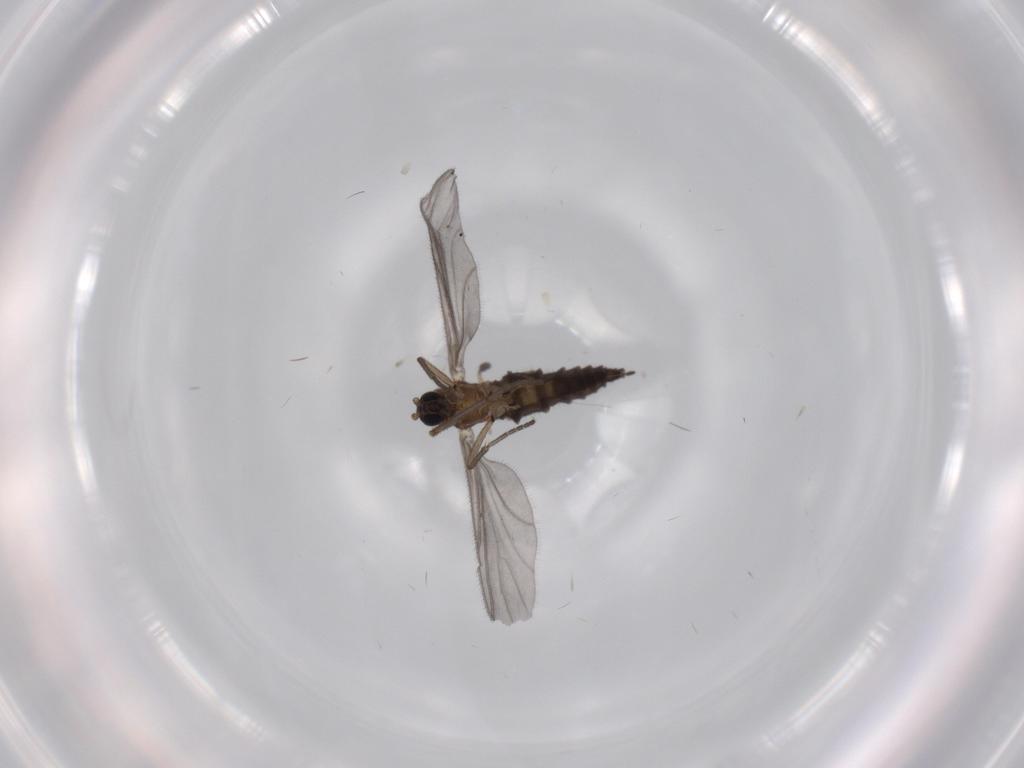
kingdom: Animalia
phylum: Arthropoda
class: Insecta
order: Diptera
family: Sciaridae
